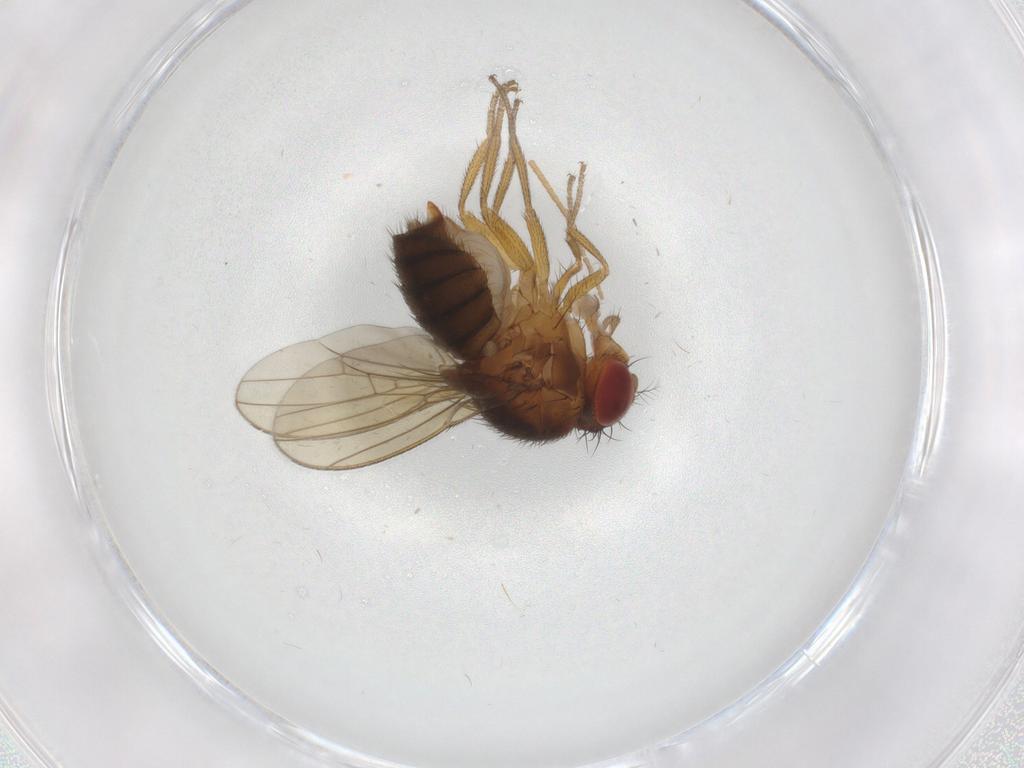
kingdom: Animalia
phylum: Arthropoda
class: Insecta
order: Diptera
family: Drosophilidae
